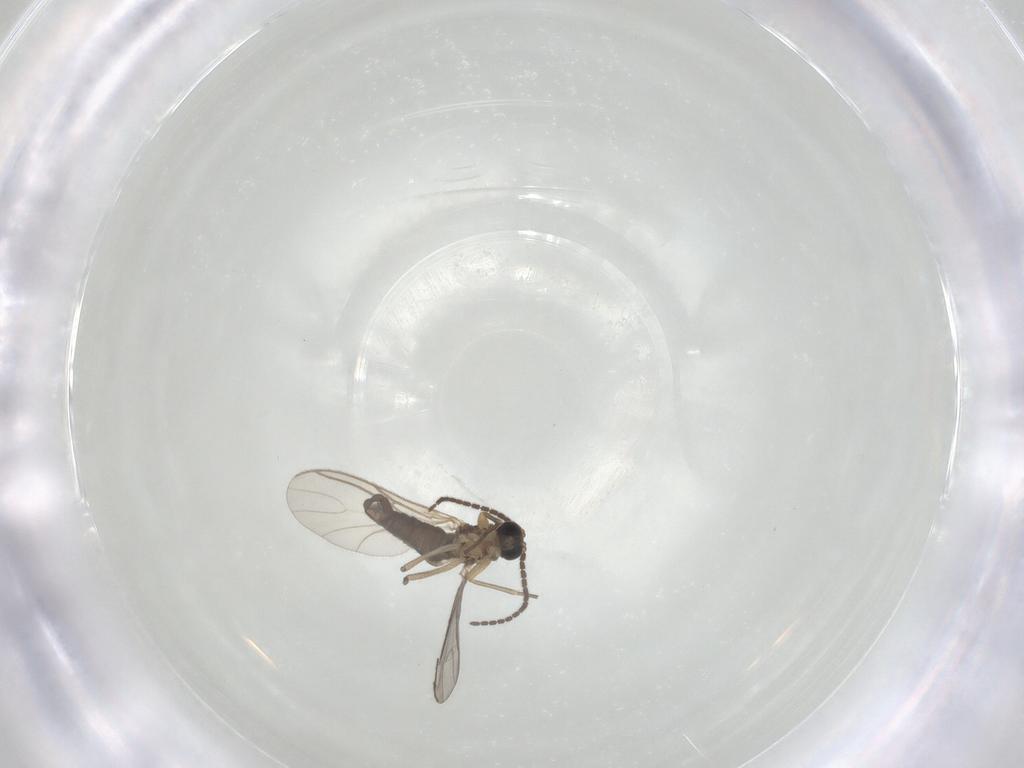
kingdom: Animalia
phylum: Arthropoda
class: Insecta
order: Diptera
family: Sciaridae
